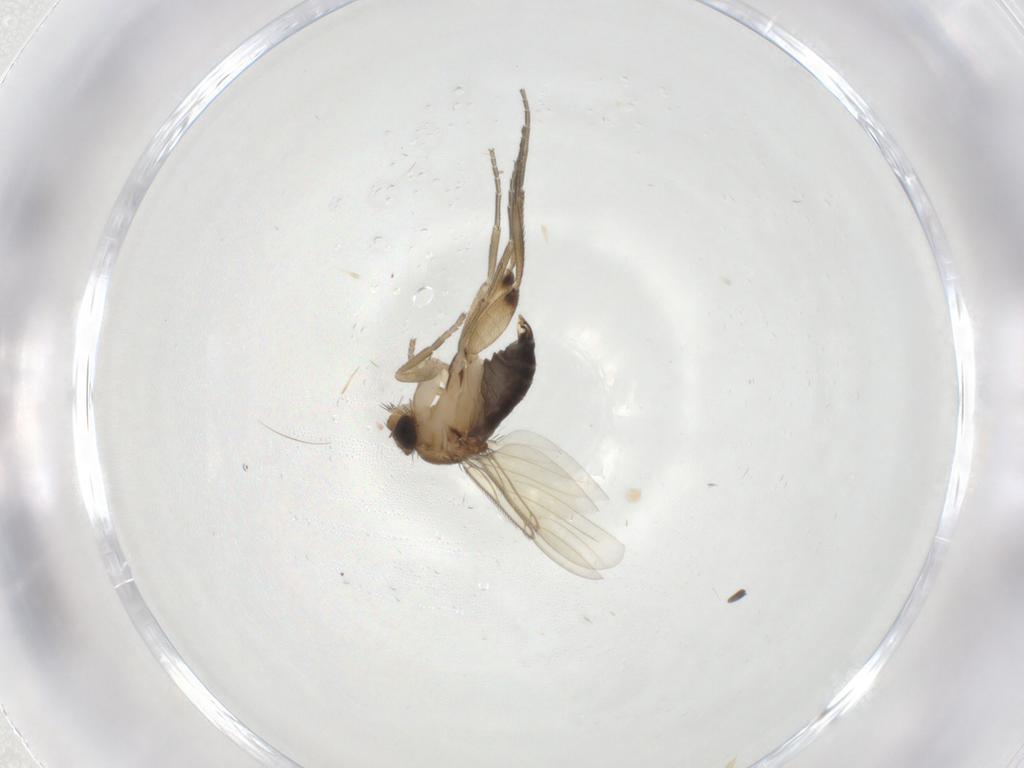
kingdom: Animalia
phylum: Arthropoda
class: Insecta
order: Diptera
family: Phoridae
